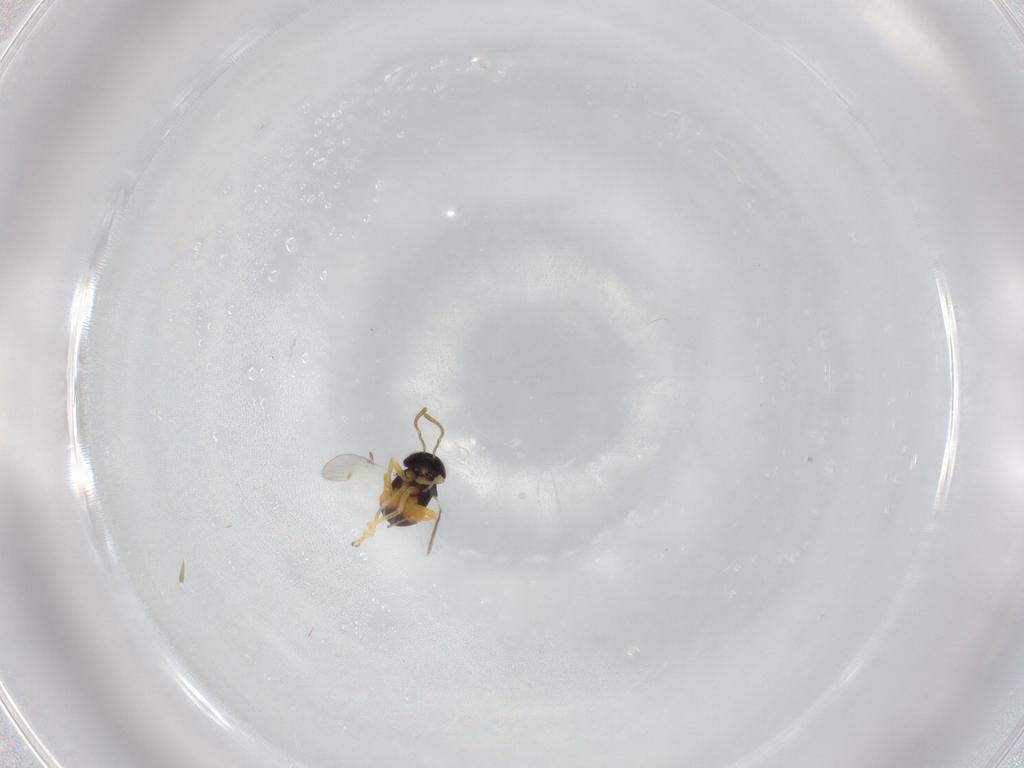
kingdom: Animalia
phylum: Arthropoda
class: Insecta
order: Hymenoptera
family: Encyrtidae
